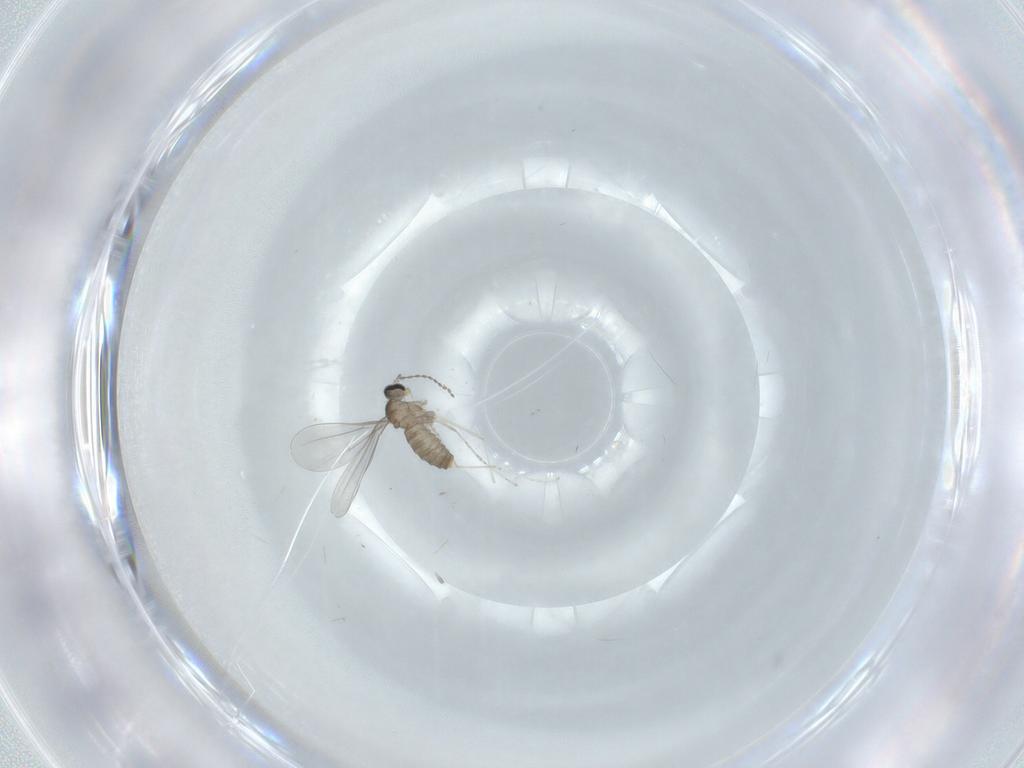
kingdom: Animalia
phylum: Arthropoda
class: Insecta
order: Diptera
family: Cecidomyiidae
